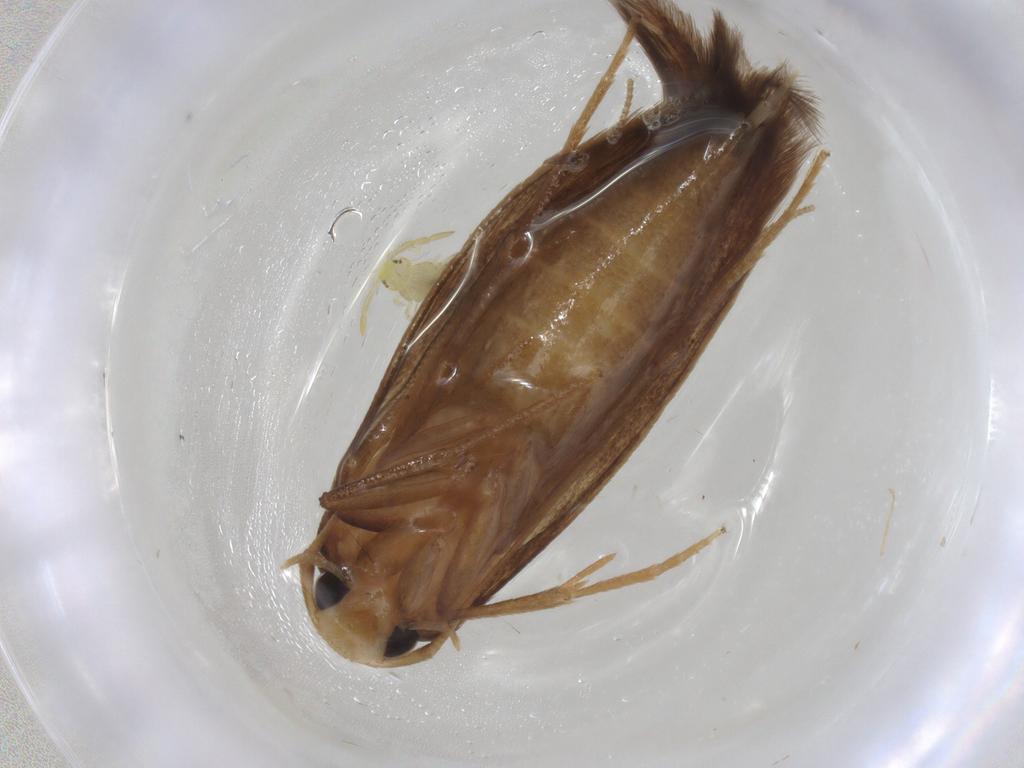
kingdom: Animalia
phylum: Arthropoda
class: Insecta
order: Lepidoptera
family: Tineidae
